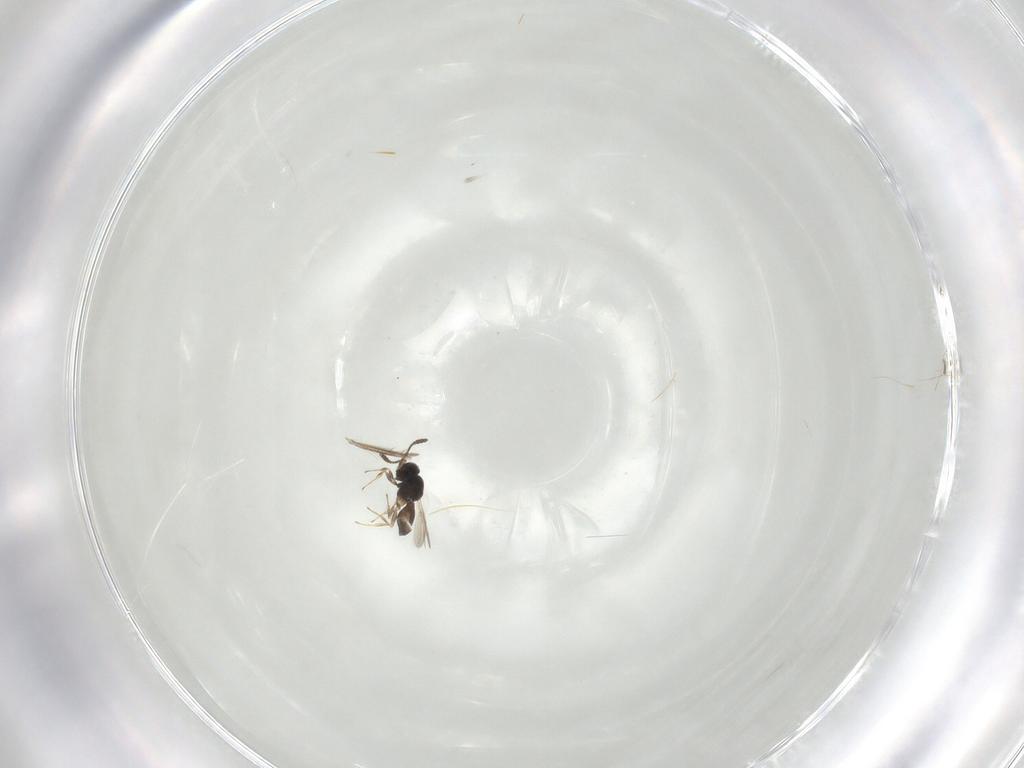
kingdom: Animalia
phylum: Arthropoda
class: Insecta
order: Hymenoptera
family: Scelionidae
